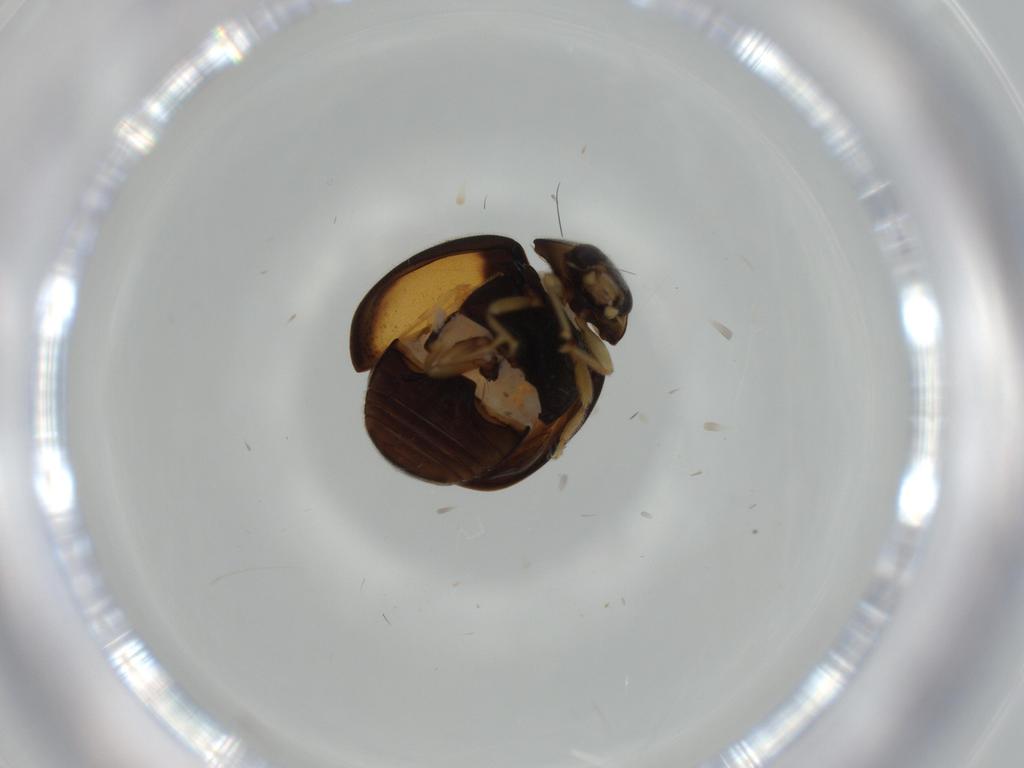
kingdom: Animalia
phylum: Arthropoda
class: Insecta
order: Coleoptera
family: Coccinellidae
